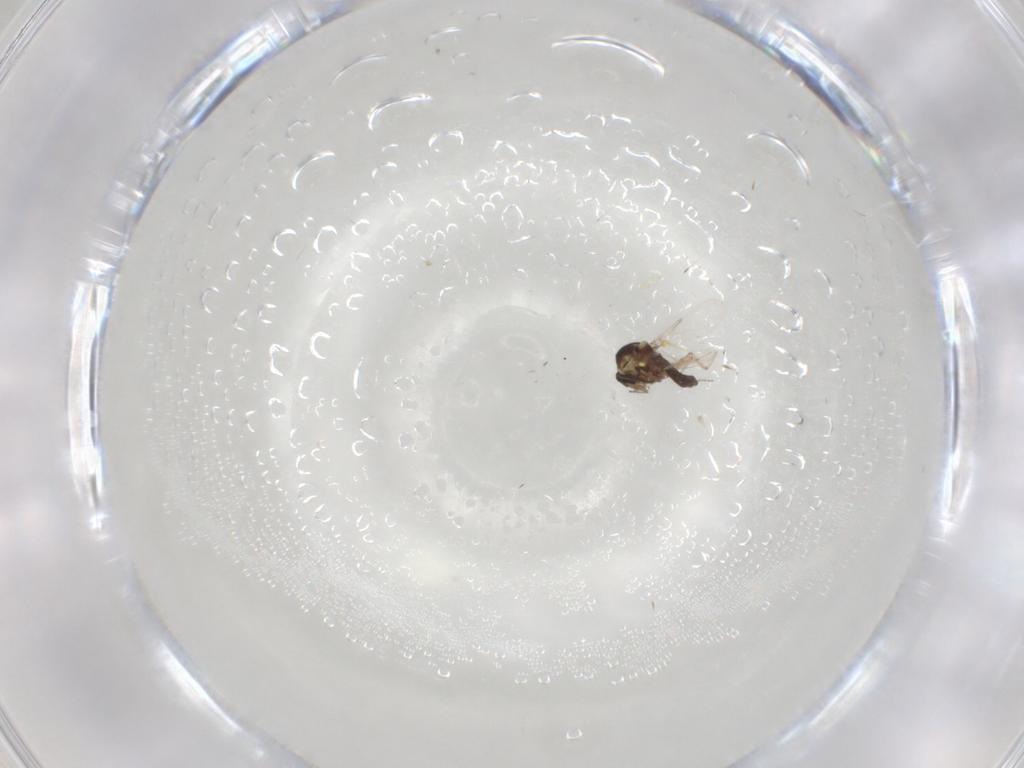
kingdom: Animalia
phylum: Arthropoda
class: Insecta
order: Diptera
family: Ceratopogonidae
